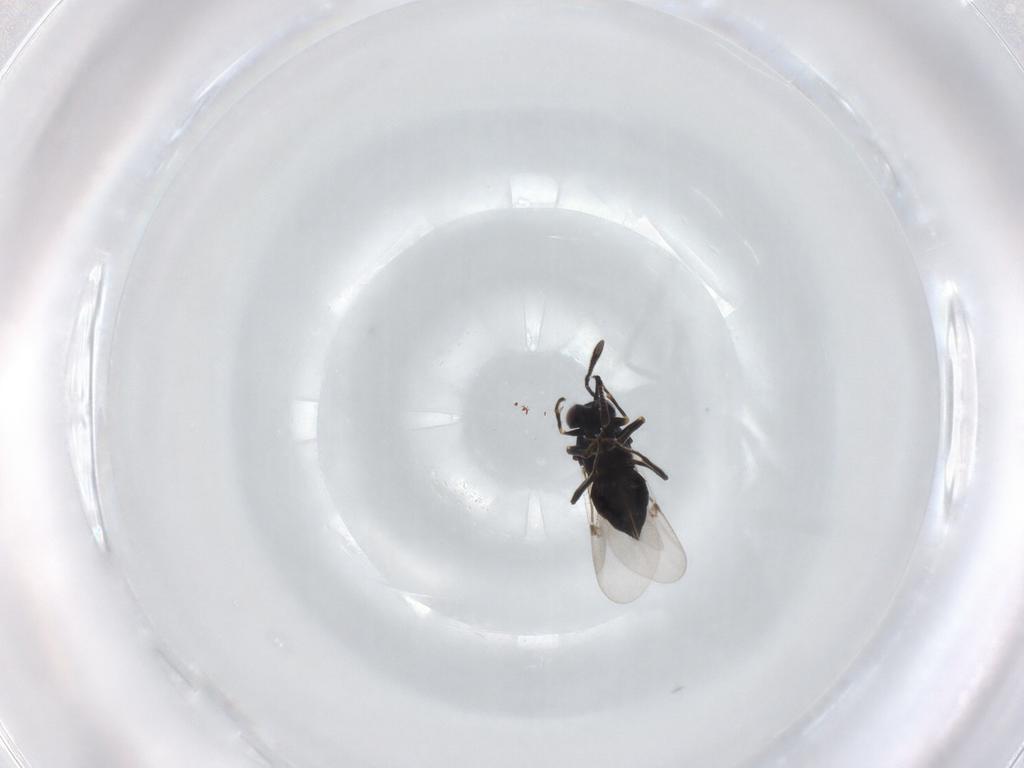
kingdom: Animalia
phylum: Arthropoda
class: Insecta
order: Hymenoptera
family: Encyrtidae
